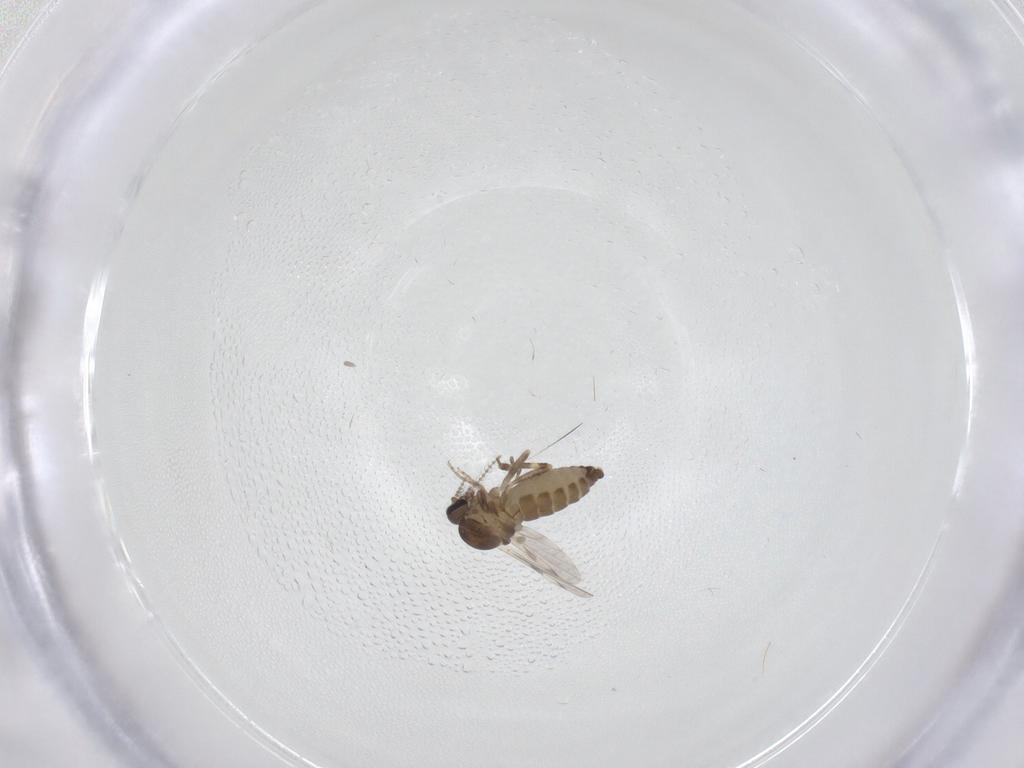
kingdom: Animalia
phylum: Arthropoda
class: Insecta
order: Diptera
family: Ceratopogonidae
